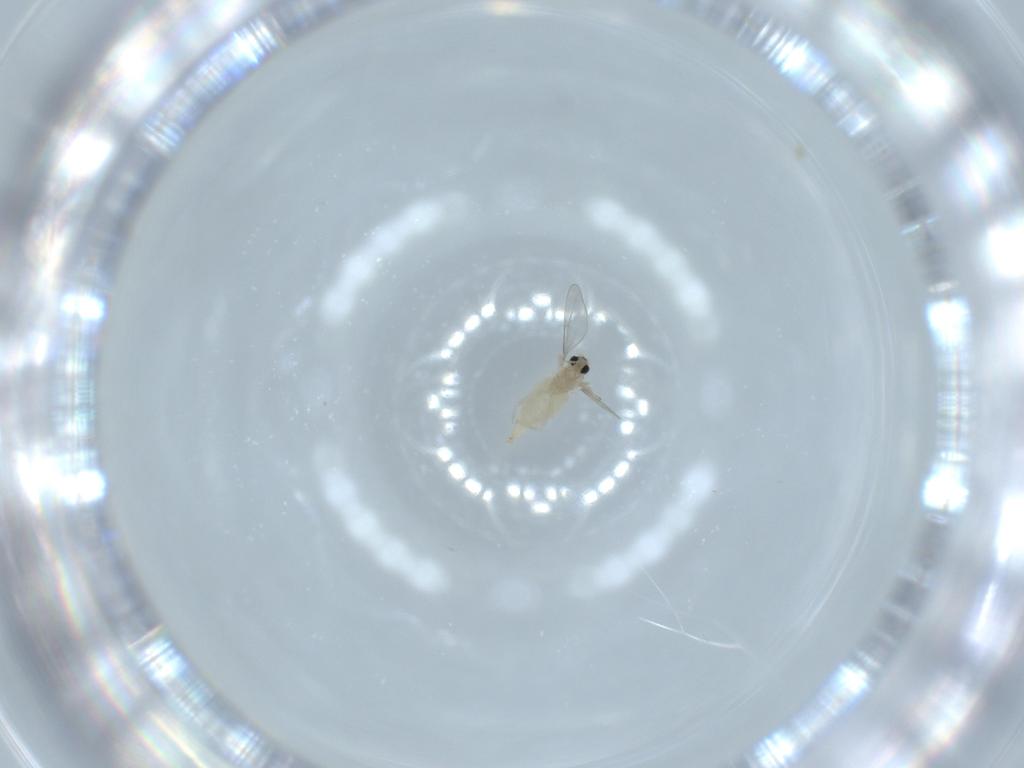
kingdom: Animalia
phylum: Arthropoda
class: Insecta
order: Diptera
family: Cecidomyiidae
